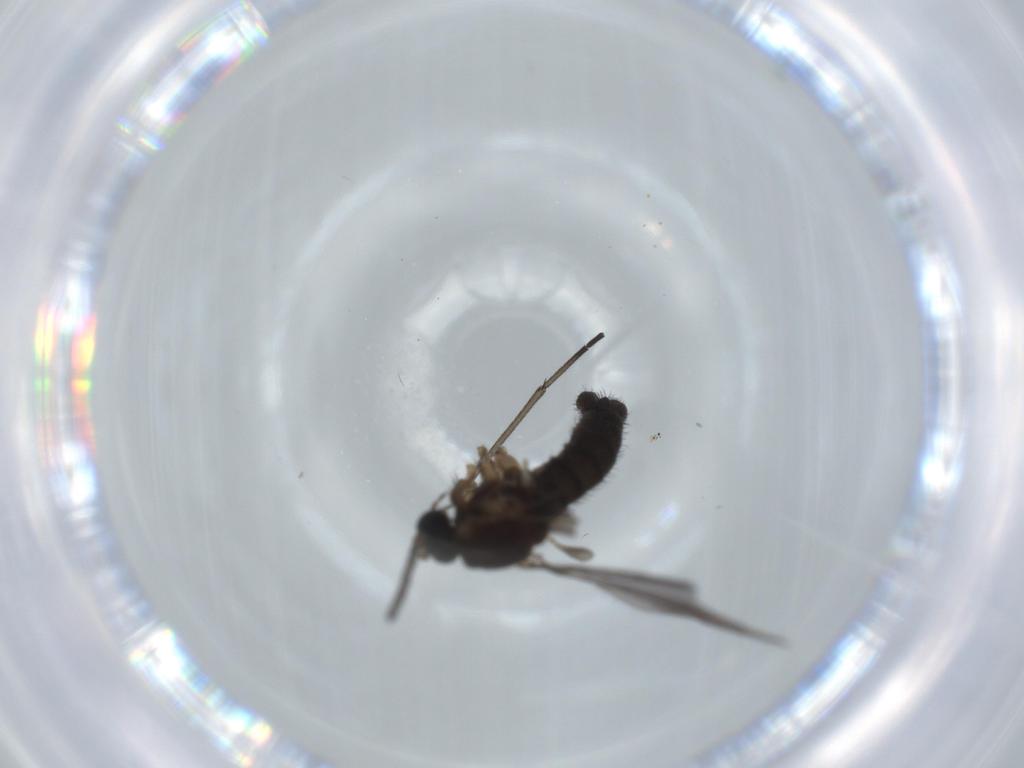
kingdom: Animalia
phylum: Arthropoda
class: Insecta
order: Diptera
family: Sciaridae
